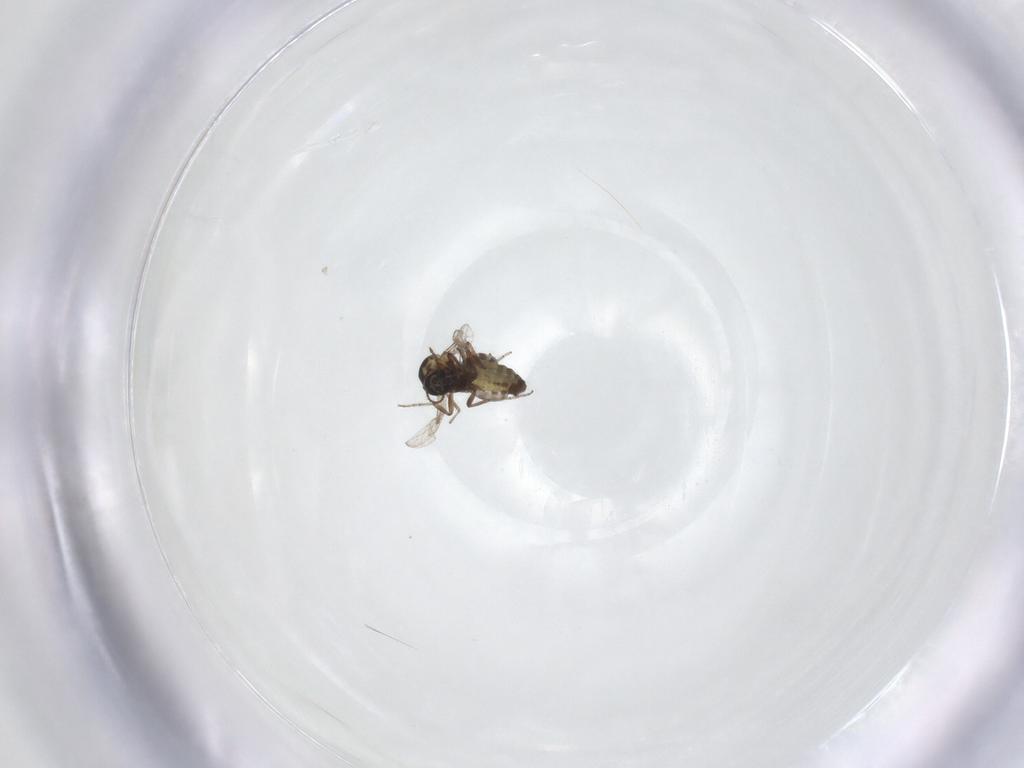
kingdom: Animalia
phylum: Arthropoda
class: Insecta
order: Diptera
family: Ceratopogonidae
